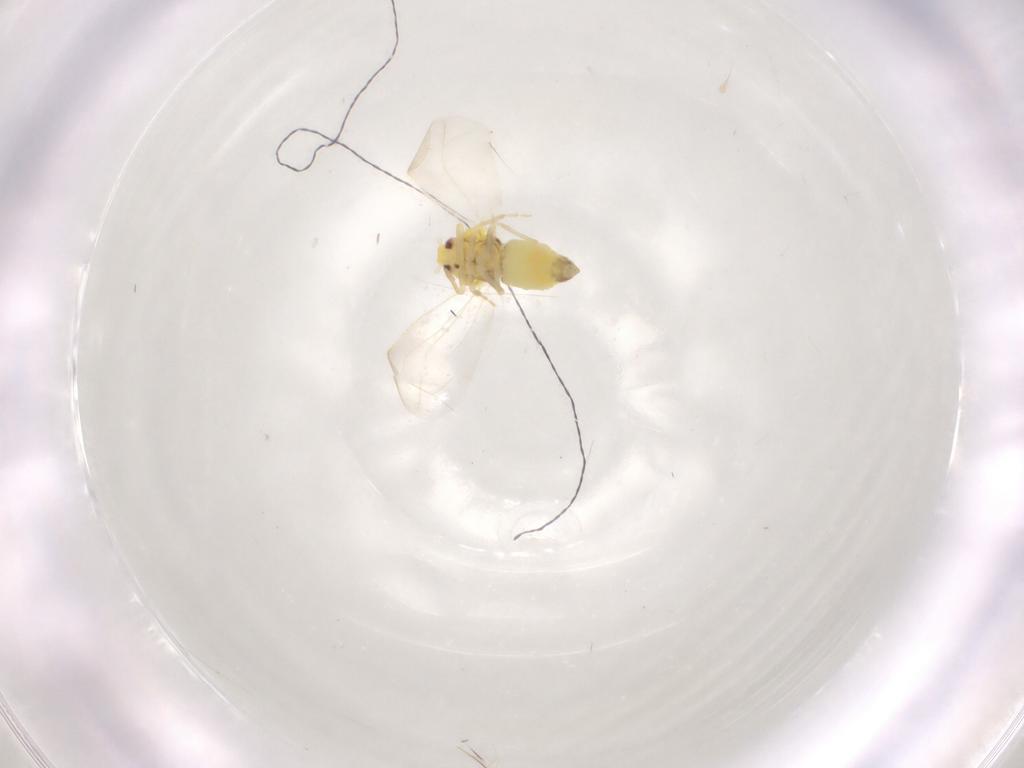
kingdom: Animalia
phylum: Arthropoda
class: Insecta
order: Hemiptera
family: Aleyrodidae
